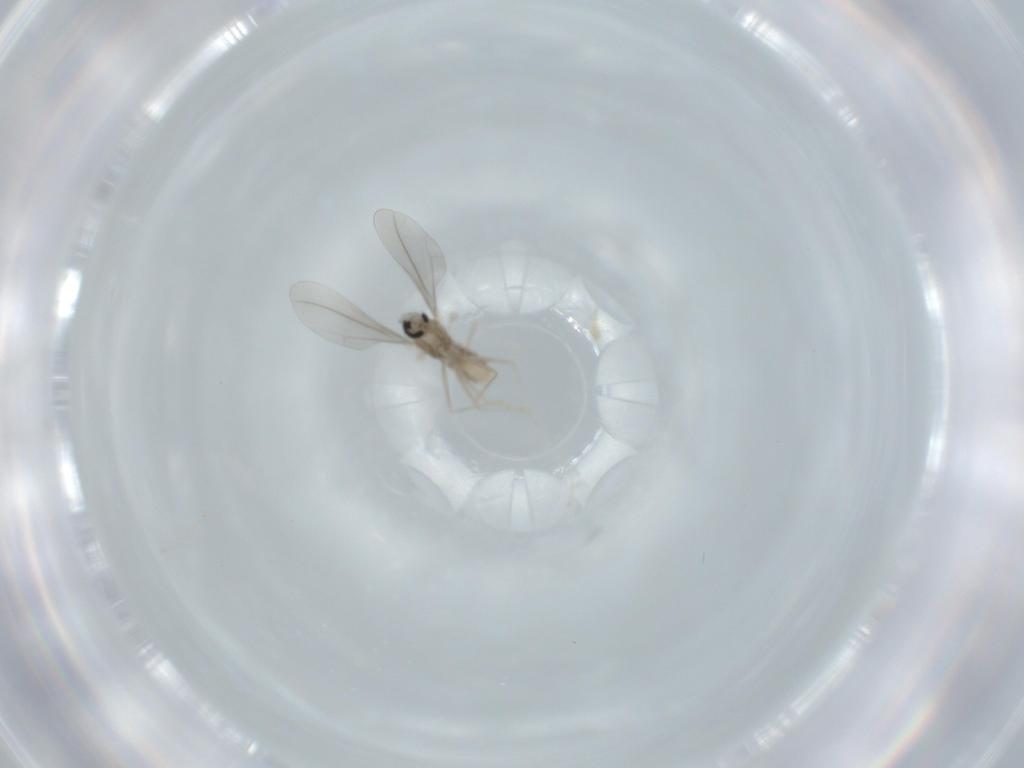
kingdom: Animalia
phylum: Arthropoda
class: Insecta
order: Diptera
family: Cecidomyiidae
